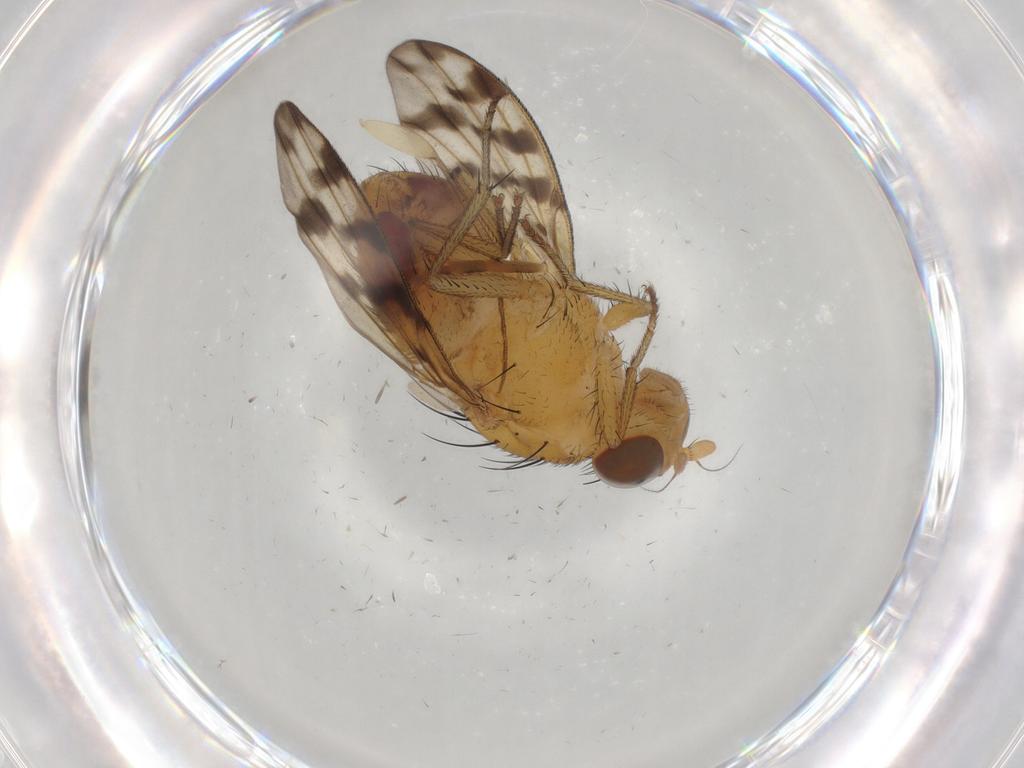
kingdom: Animalia
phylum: Arthropoda
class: Insecta
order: Diptera
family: Mycetophilidae
